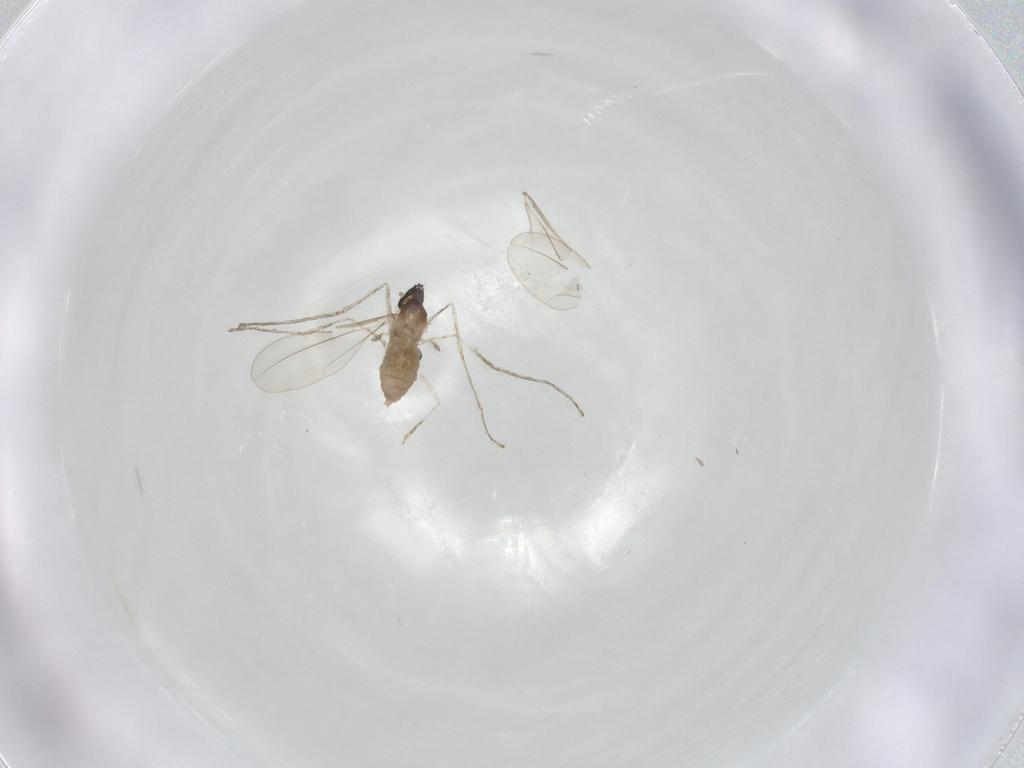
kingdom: Animalia
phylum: Arthropoda
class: Insecta
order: Diptera
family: Cecidomyiidae
